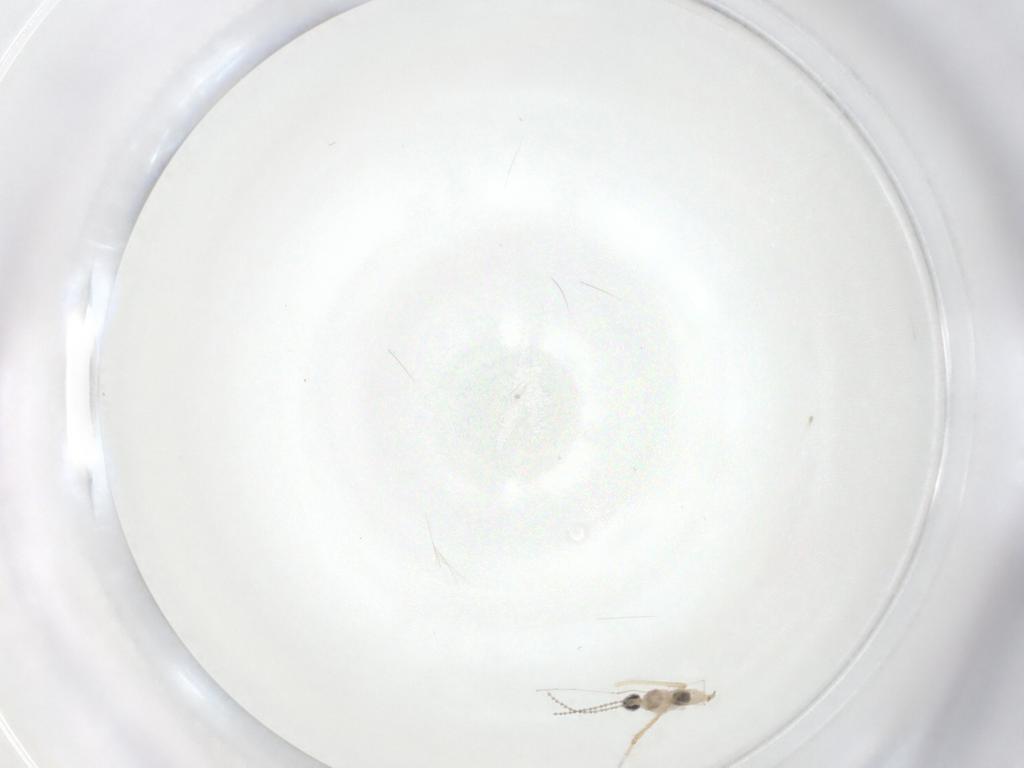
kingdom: Animalia
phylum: Arthropoda
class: Insecta
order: Diptera
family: Cecidomyiidae
